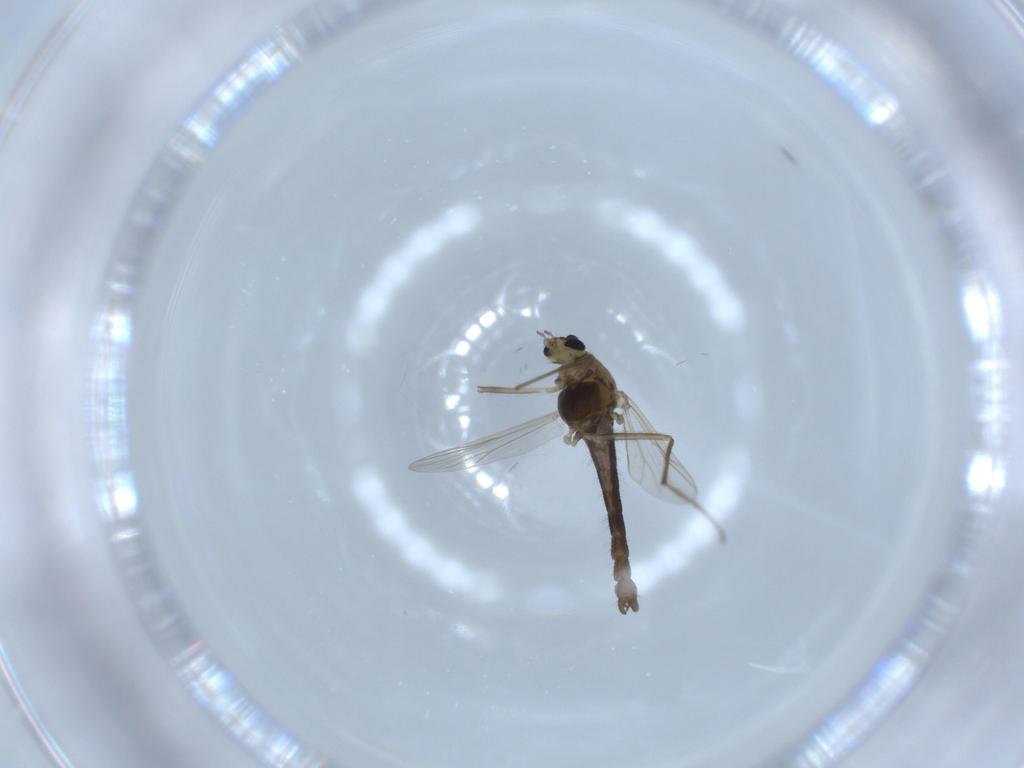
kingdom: Animalia
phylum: Arthropoda
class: Insecta
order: Diptera
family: Chironomidae
